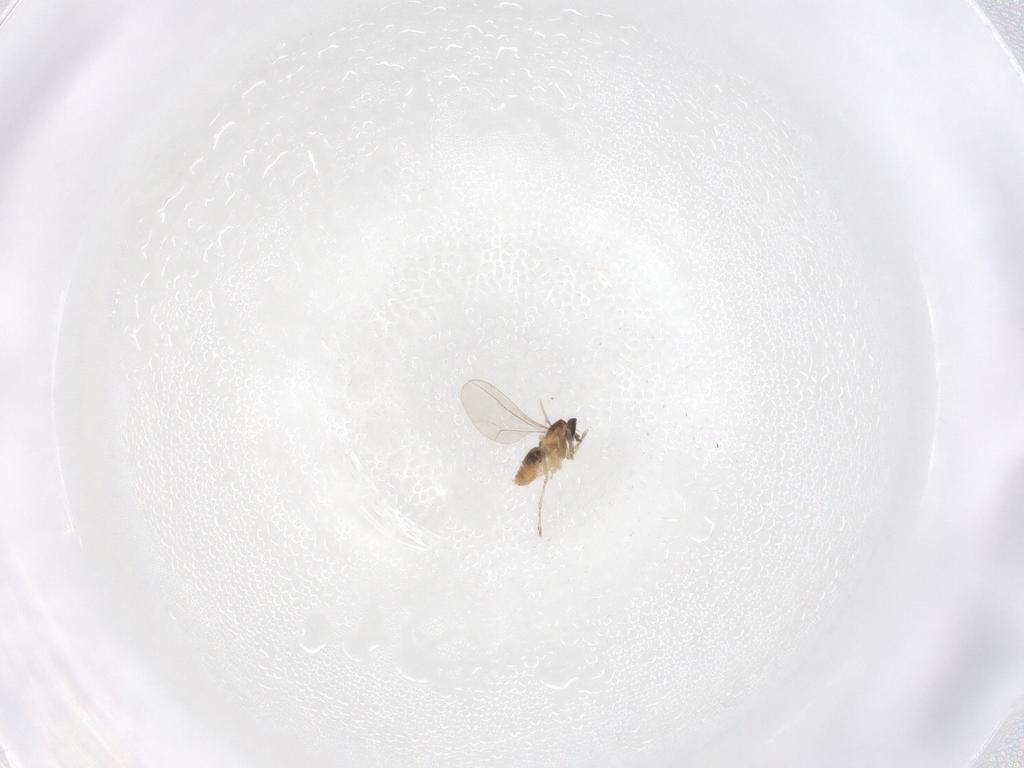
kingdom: Animalia
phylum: Arthropoda
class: Insecta
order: Diptera
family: Cecidomyiidae
